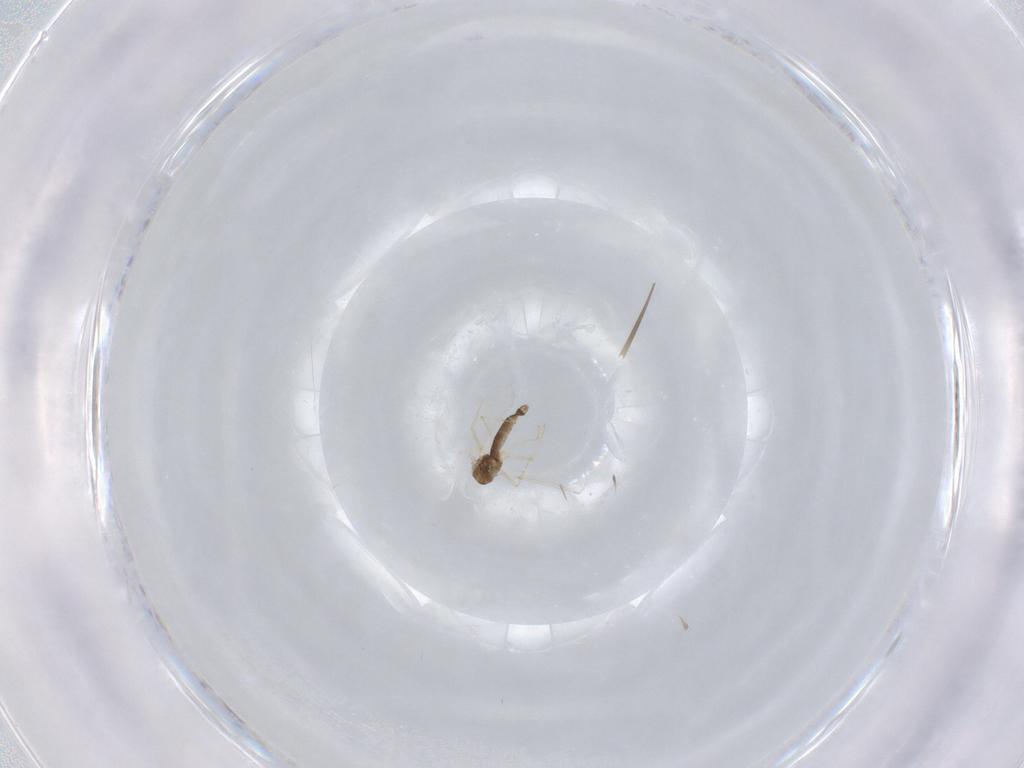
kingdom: Animalia
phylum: Arthropoda
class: Insecta
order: Diptera
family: Chironomidae
